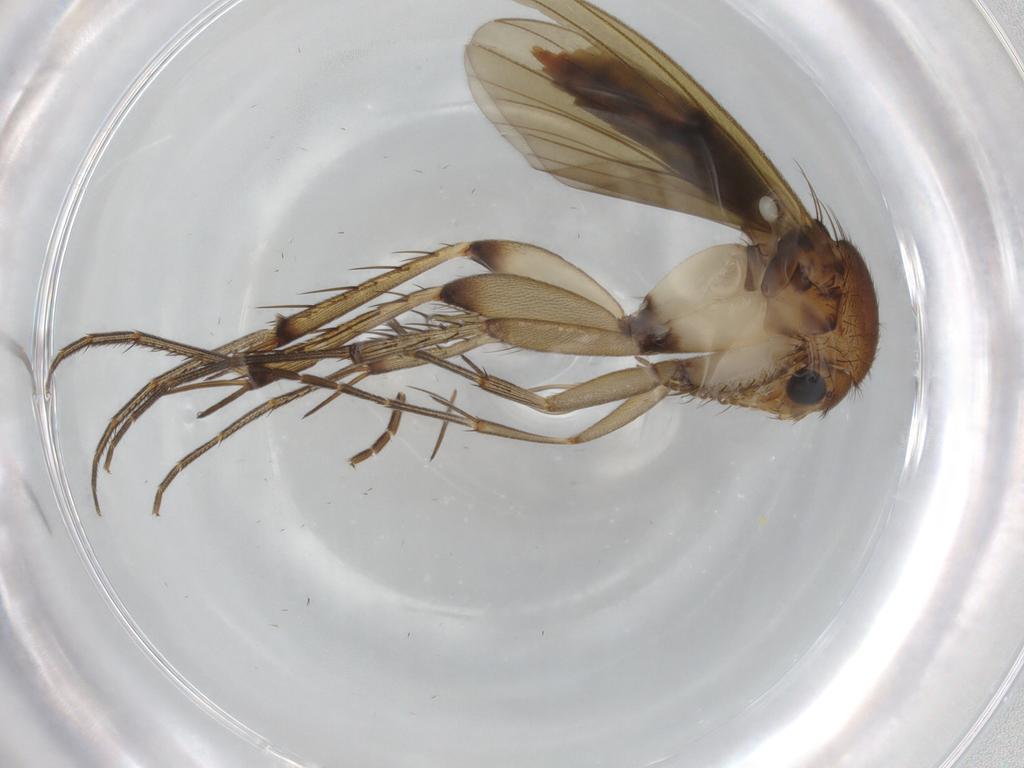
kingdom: Animalia
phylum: Arthropoda
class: Insecta
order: Diptera
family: Mycetophilidae
